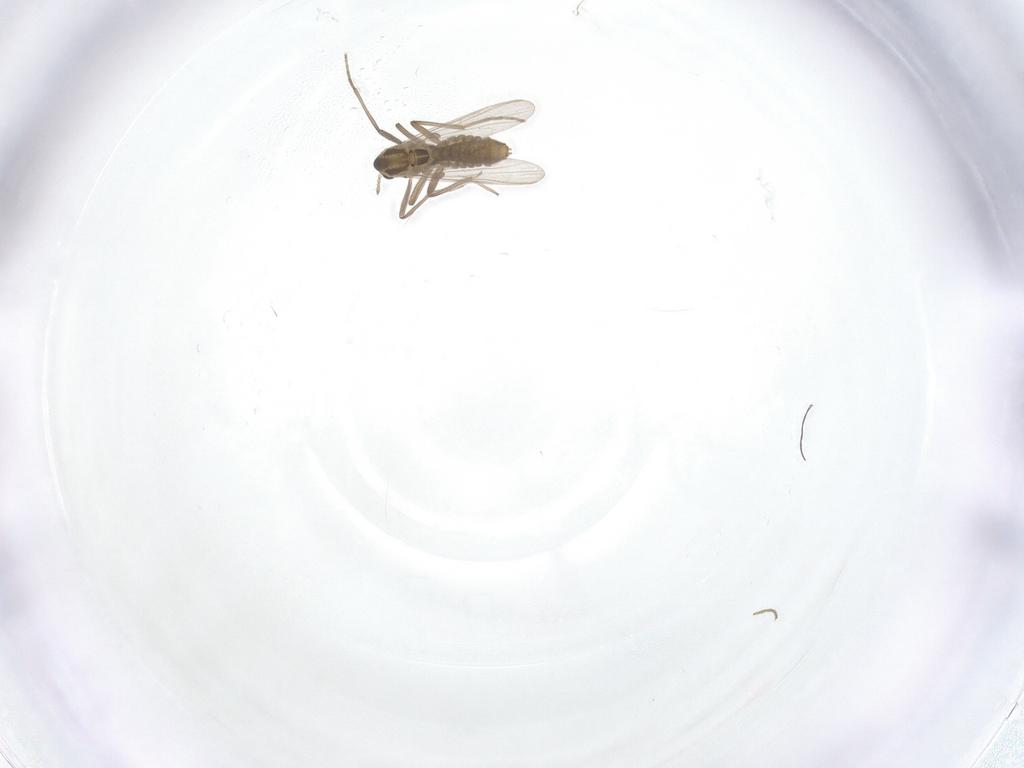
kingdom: Animalia
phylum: Arthropoda
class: Insecta
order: Diptera
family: Chironomidae
